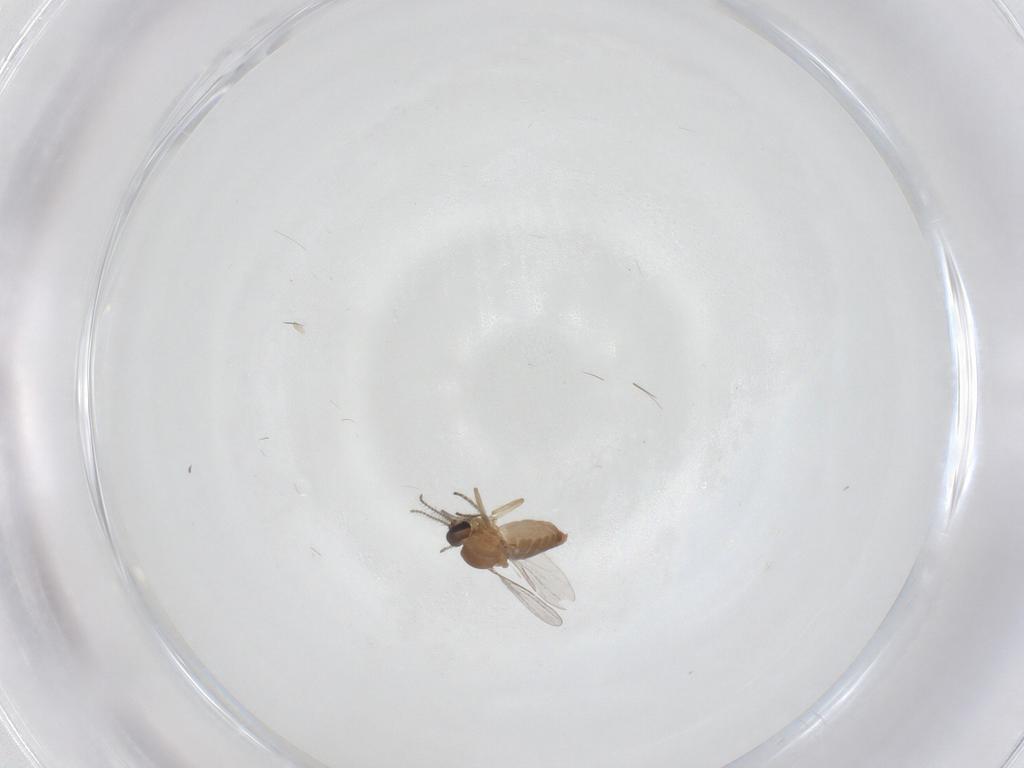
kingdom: Animalia
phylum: Arthropoda
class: Insecta
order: Diptera
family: Ceratopogonidae
